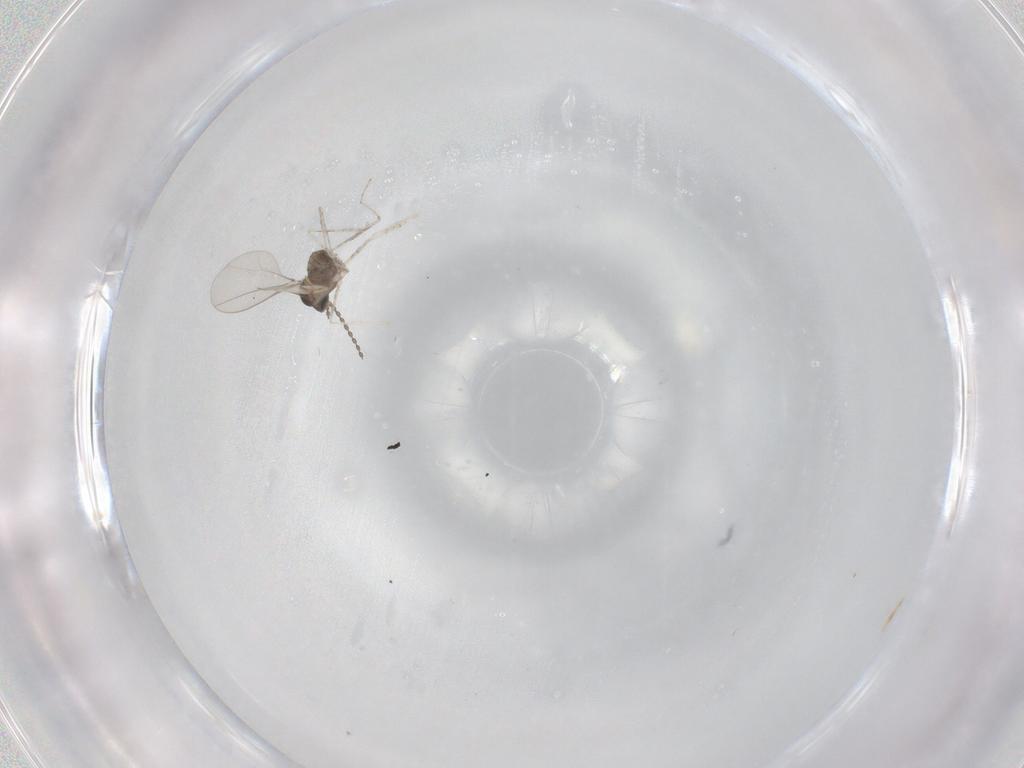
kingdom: Animalia
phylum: Arthropoda
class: Insecta
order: Diptera
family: Cecidomyiidae
